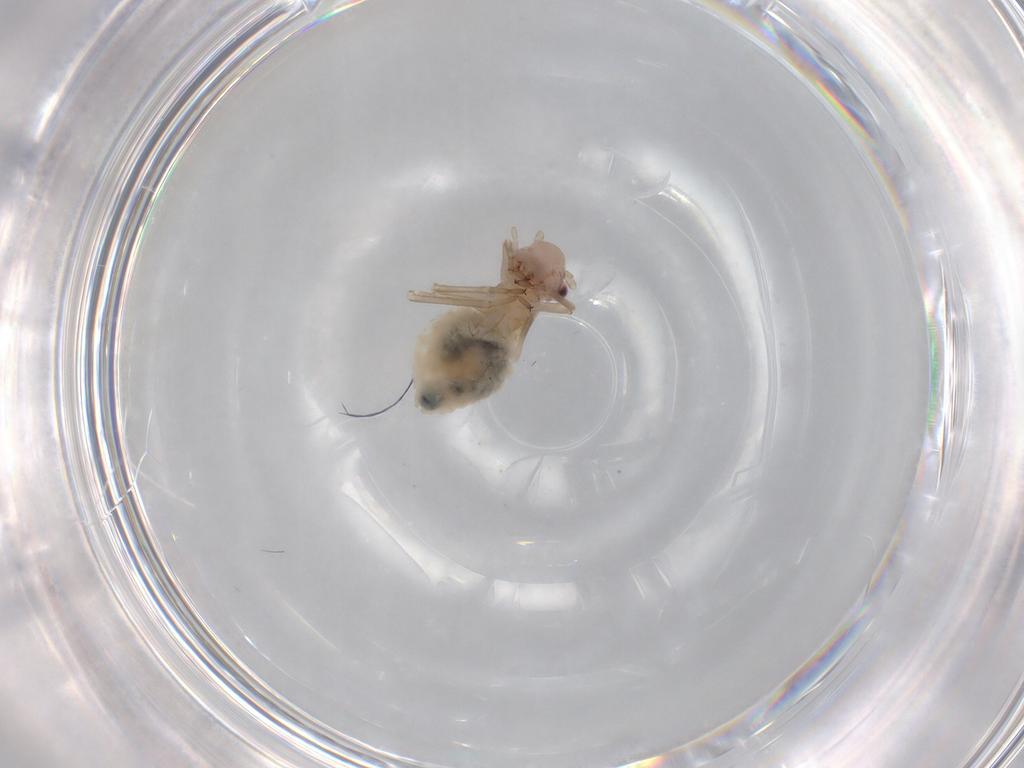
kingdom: Animalia
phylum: Arthropoda
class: Insecta
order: Psocodea
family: Stenopsocidae
